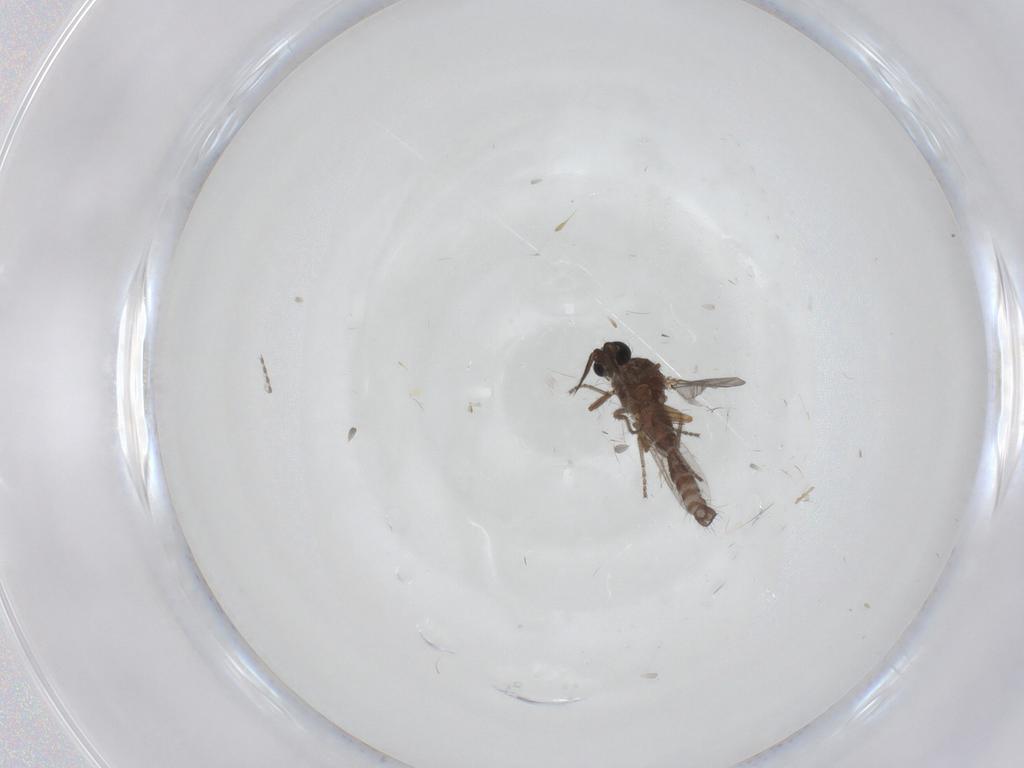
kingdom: Animalia
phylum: Arthropoda
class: Insecta
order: Diptera
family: Ceratopogonidae
